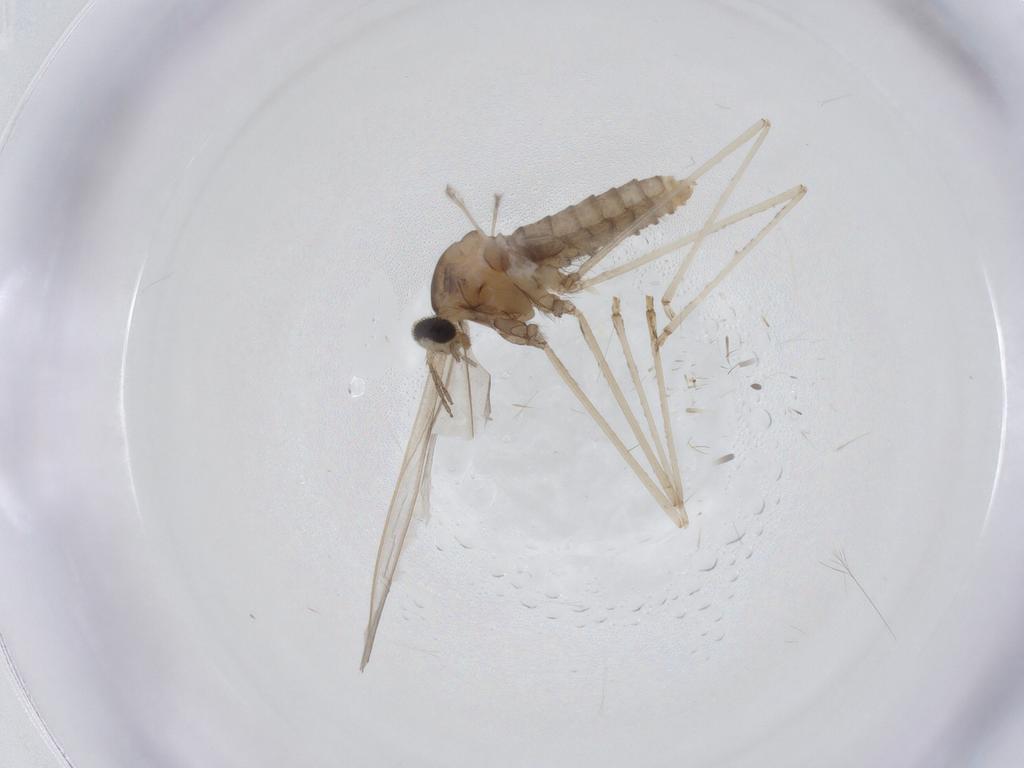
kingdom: Animalia
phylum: Arthropoda
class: Insecta
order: Diptera
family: Cecidomyiidae
